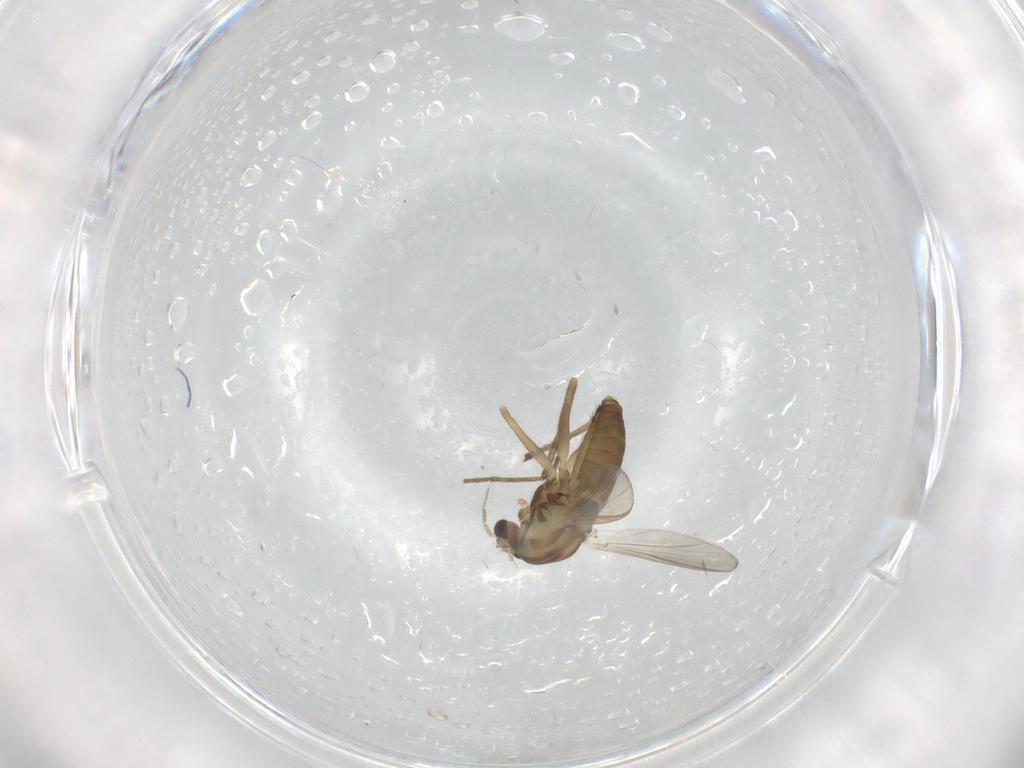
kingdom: Animalia
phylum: Arthropoda
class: Insecta
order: Diptera
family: Chironomidae
